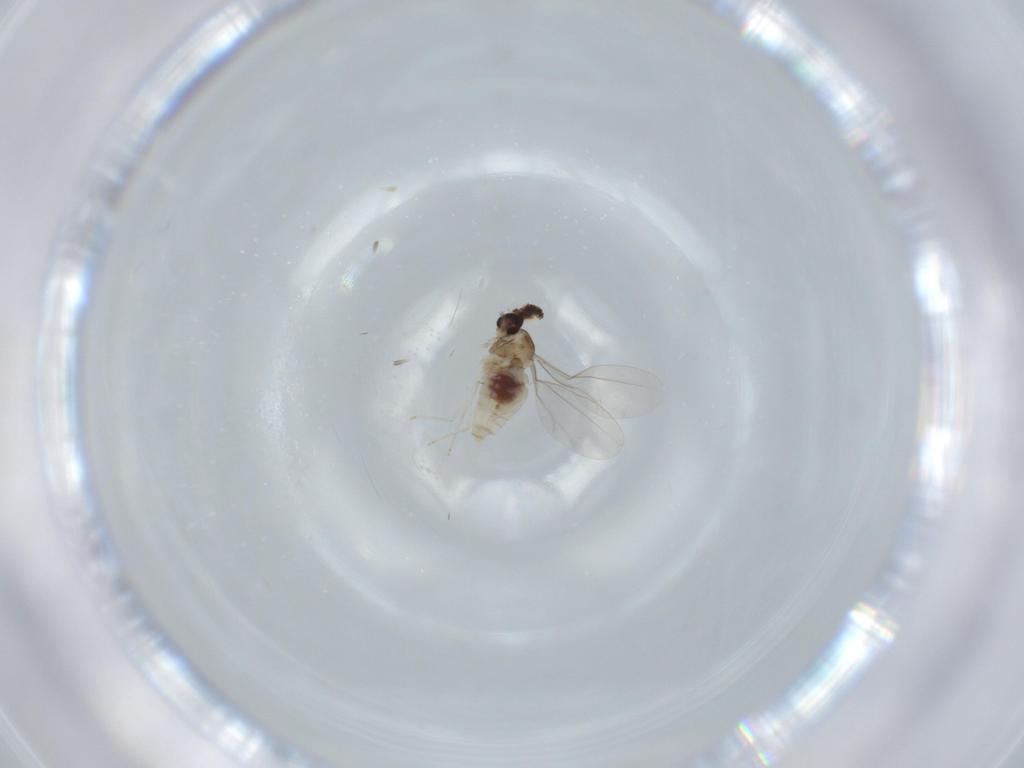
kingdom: Animalia
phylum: Arthropoda
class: Insecta
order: Diptera
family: Cecidomyiidae
